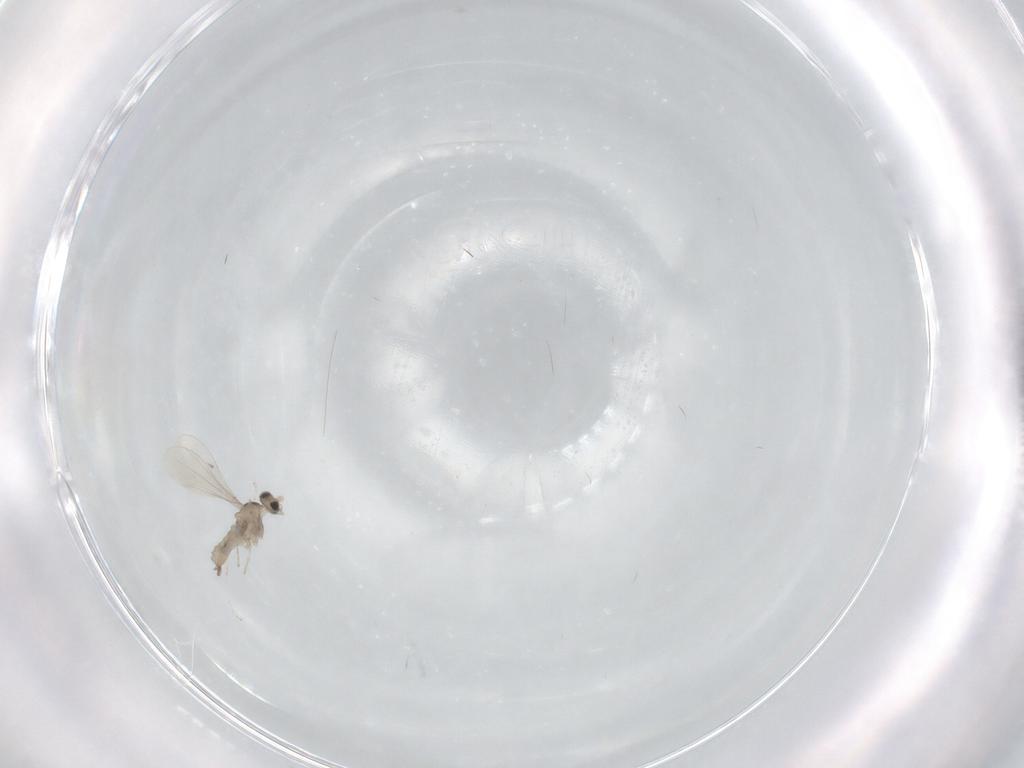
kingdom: Animalia
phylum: Arthropoda
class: Insecta
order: Diptera
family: Cecidomyiidae
